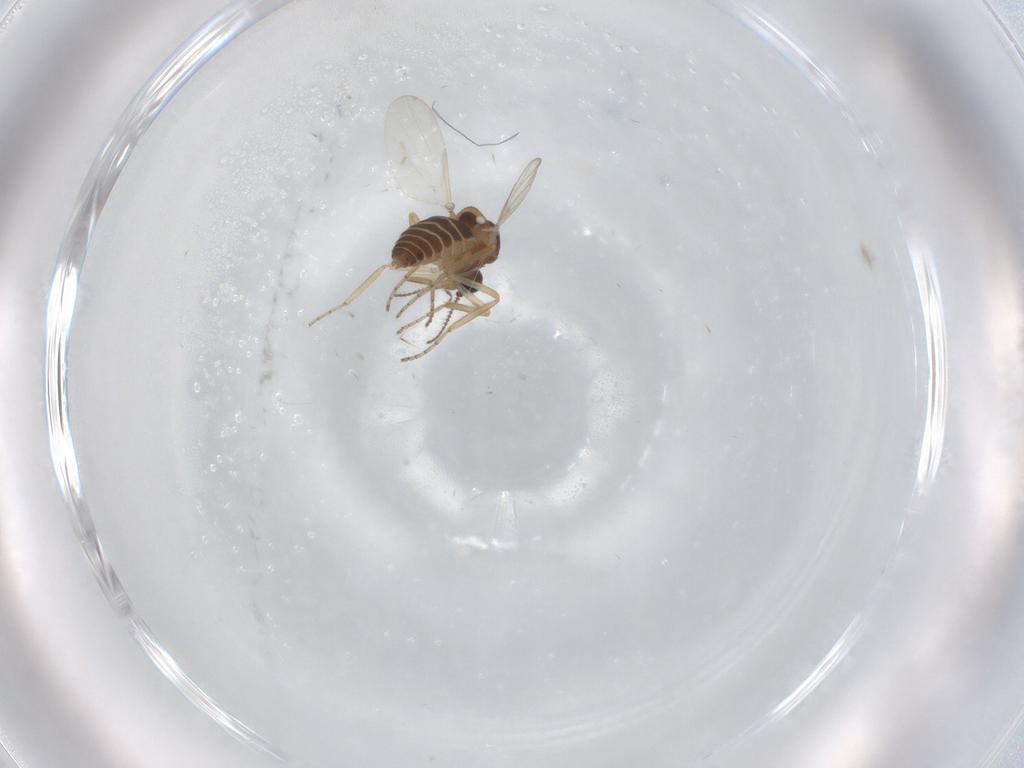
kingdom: Animalia
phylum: Arthropoda
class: Insecta
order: Diptera
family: Ceratopogonidae
